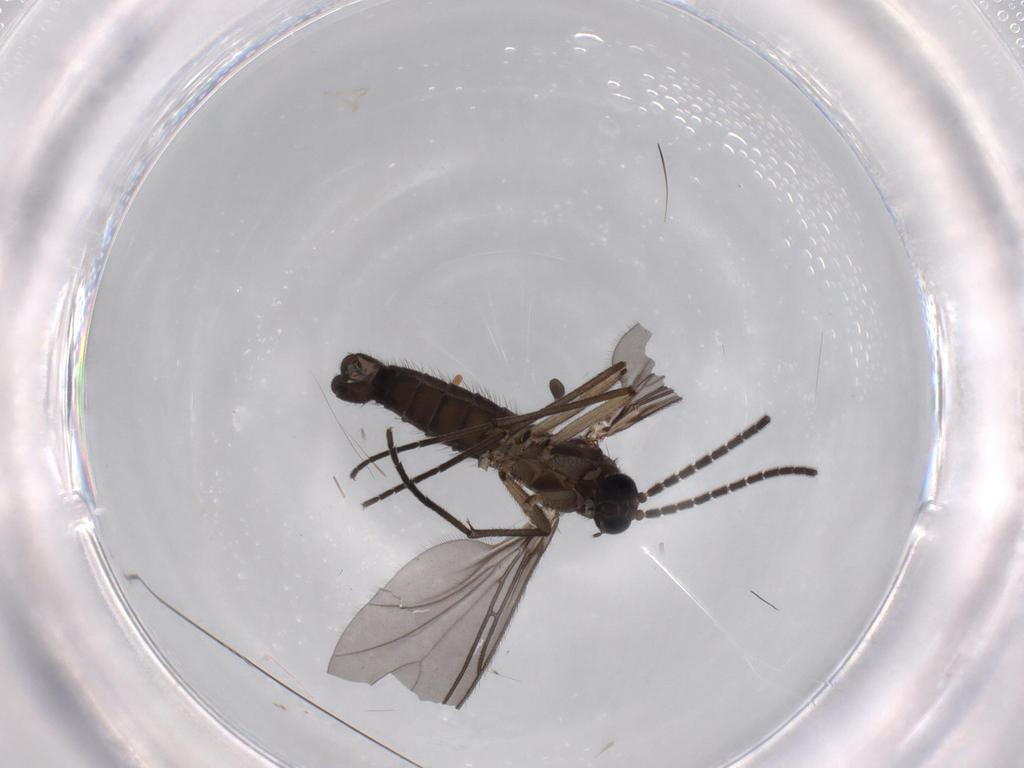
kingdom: Animalia
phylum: Arthropoda
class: Insecta
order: Diptera
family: Sciaridae
